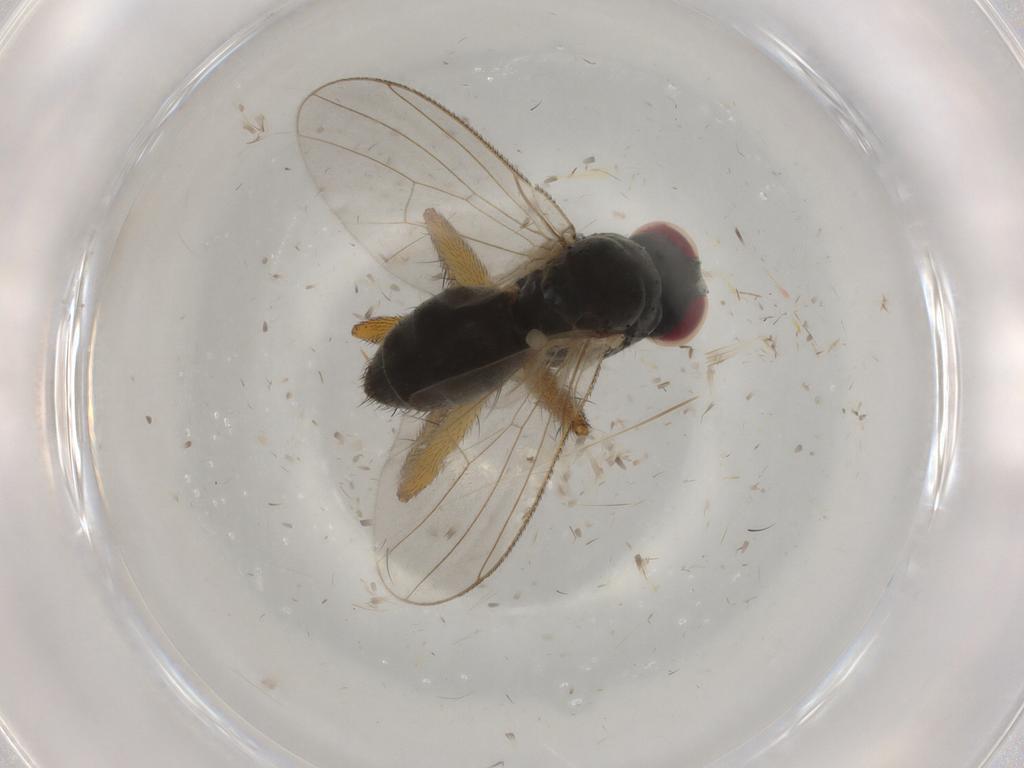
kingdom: Animalia
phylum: Arthropoda
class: Insecta
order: Diptera
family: Muscidae
